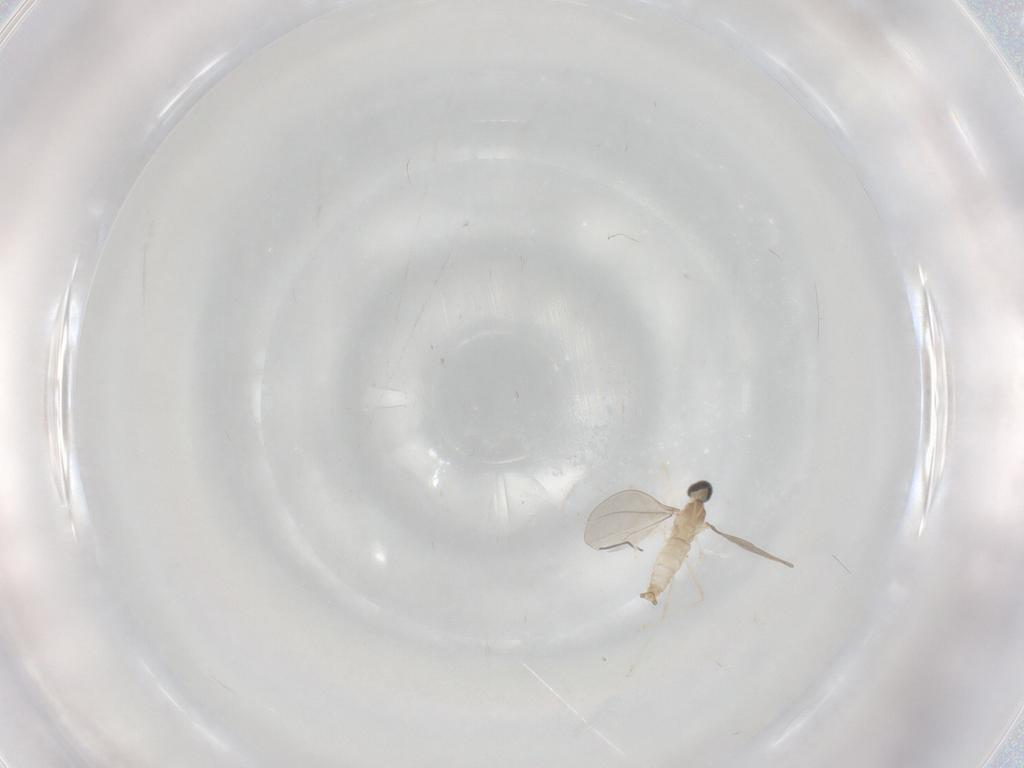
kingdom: Animalia
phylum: Arthropoda
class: Insecta
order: Diptera
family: Cecidomyiidae
